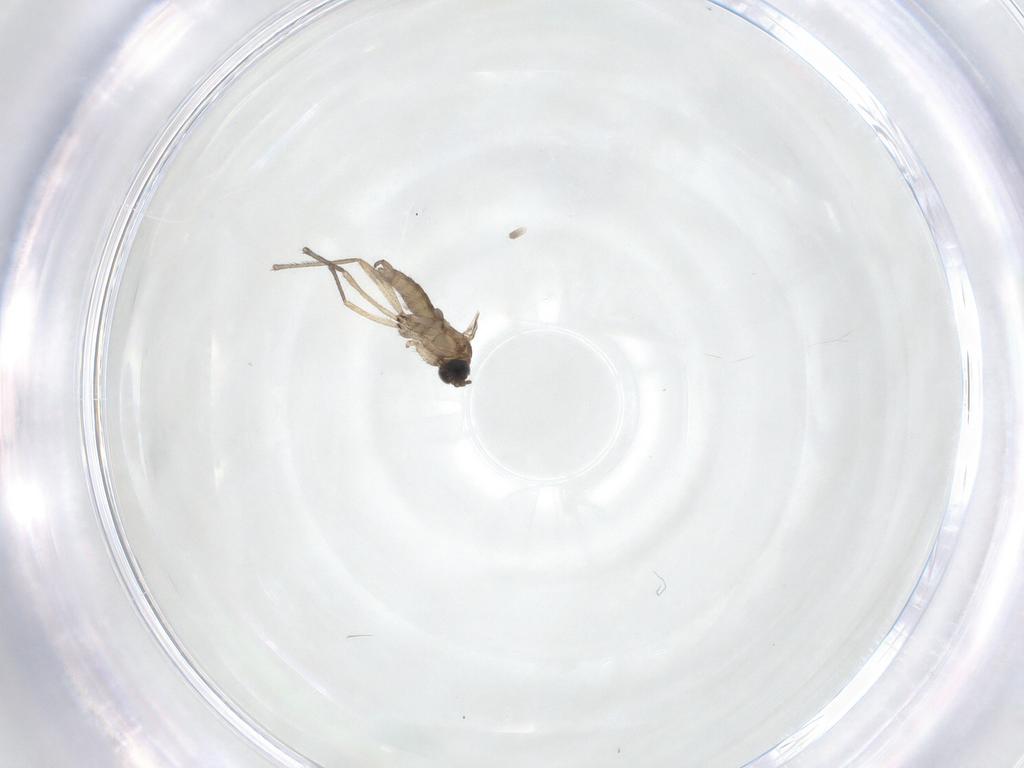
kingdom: Animalia
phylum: Arthropoda
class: Insecta
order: Diptera
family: Sciaridae
